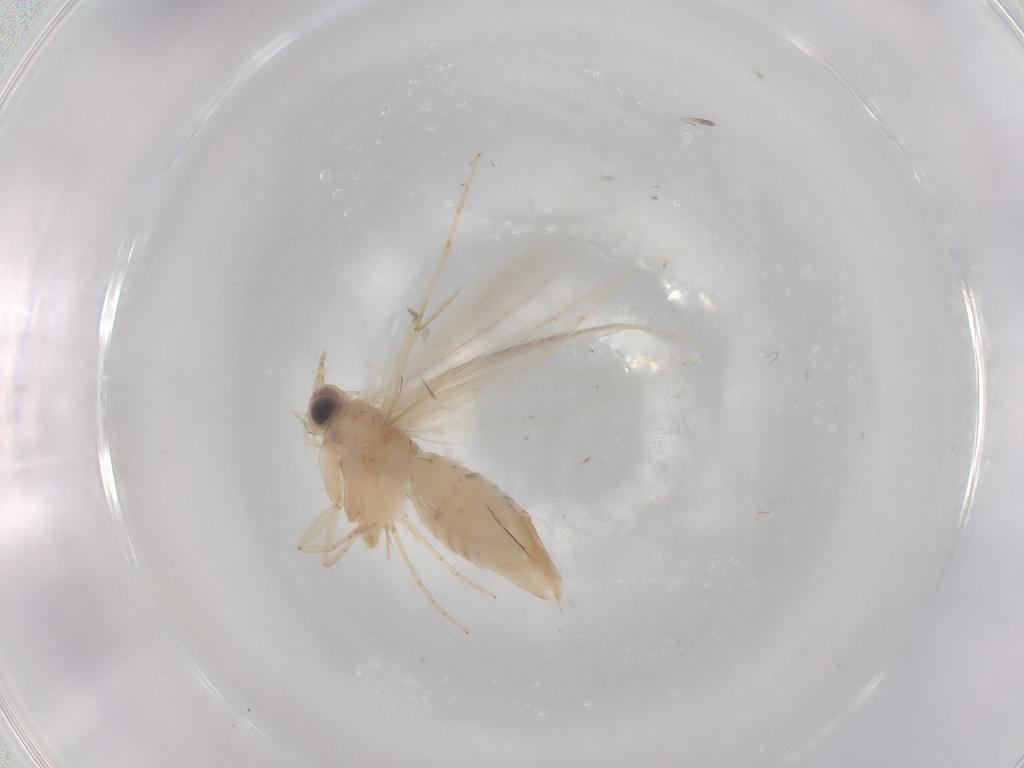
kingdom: Animalia
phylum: Arthropoda
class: Insecta
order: Lepidoptera
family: Tineidae
